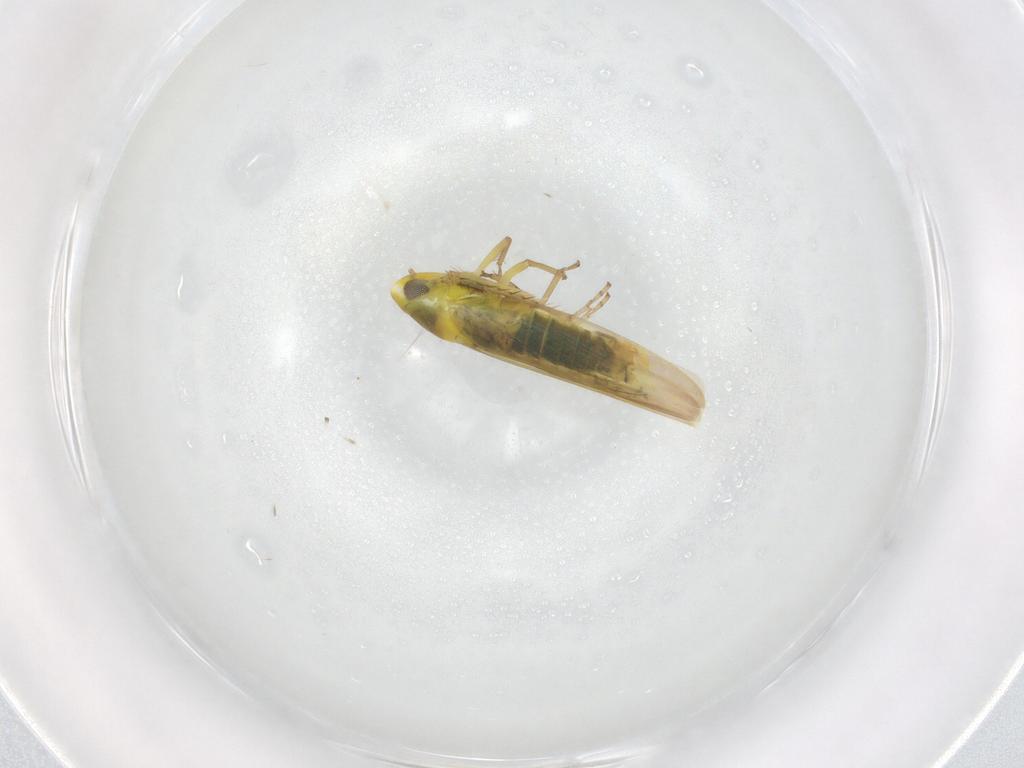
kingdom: Animalia
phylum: Arthropoda
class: Insecta
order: Hemiptera
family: Cicadellidae
